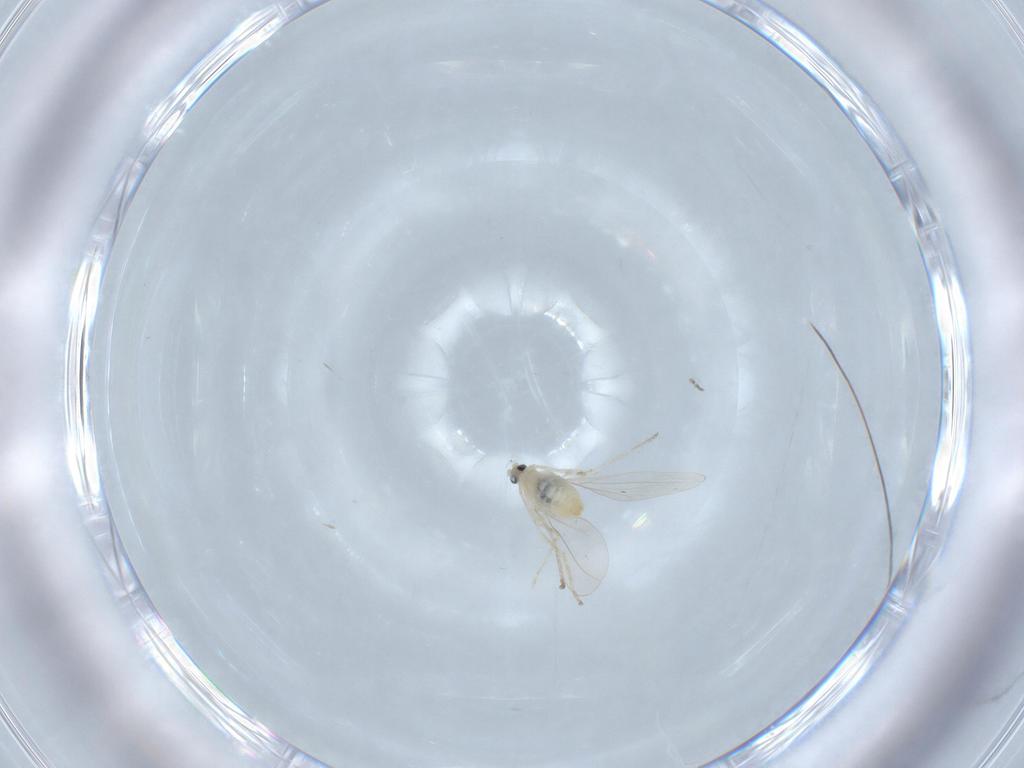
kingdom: Animalia
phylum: Arthropoda
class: Insecta
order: Diptera
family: Cecidomyiidae
